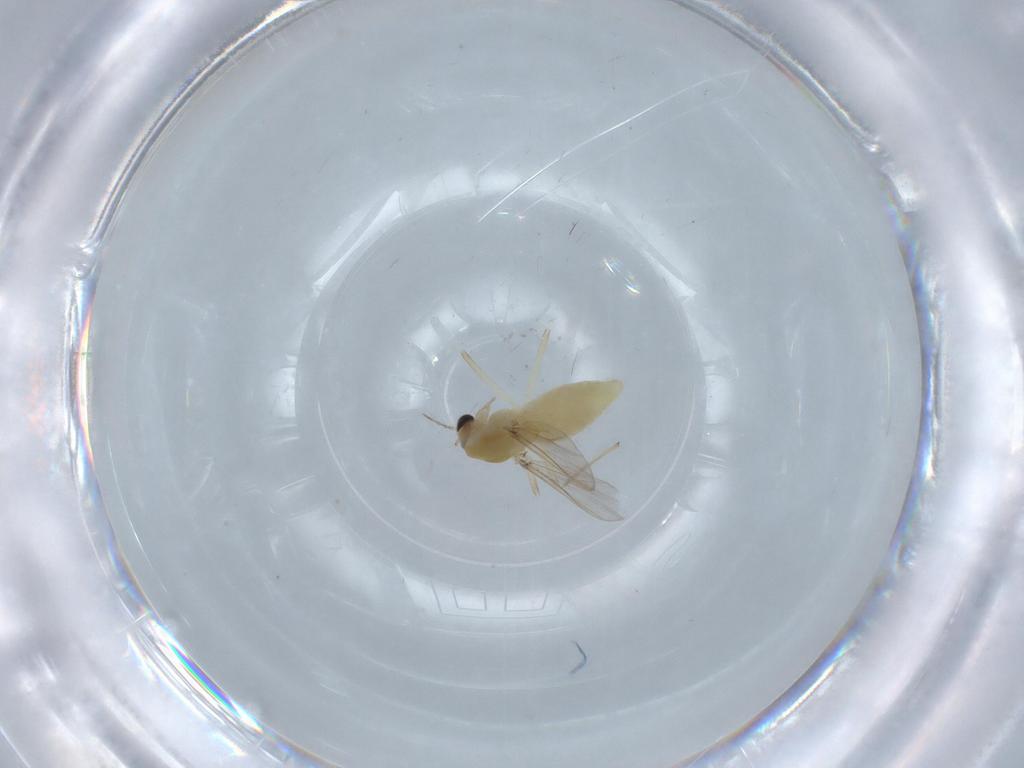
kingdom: Animalia
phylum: Arthropoda
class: Insecta
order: Diptera
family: Chironomidae
